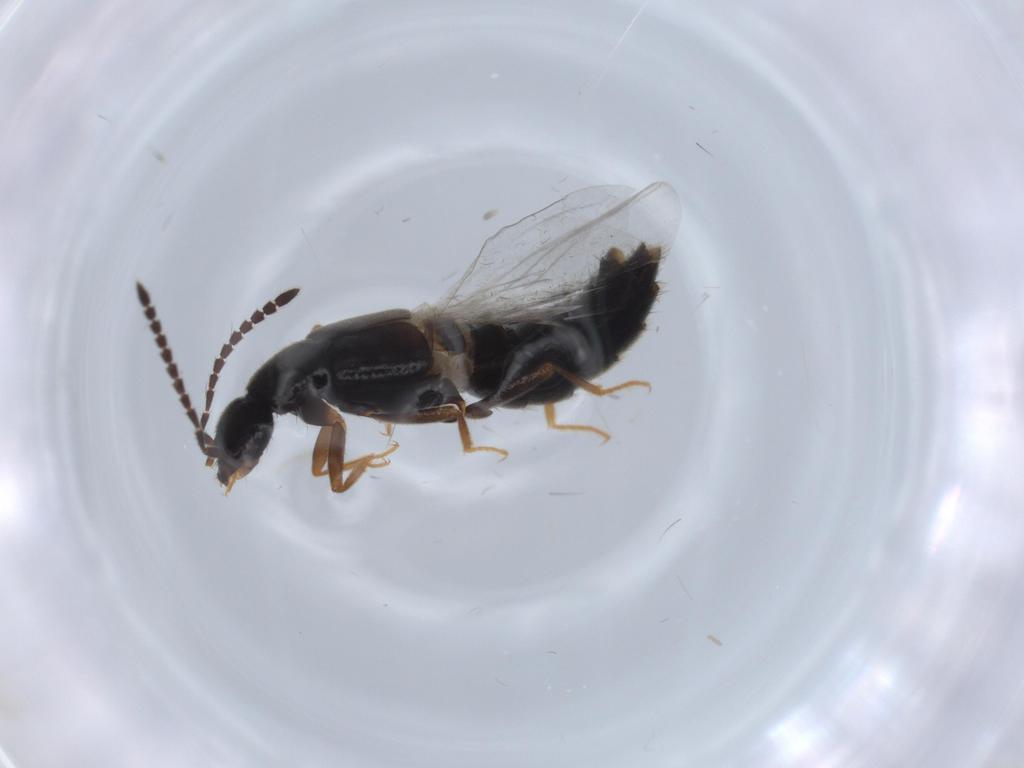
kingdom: Animalia
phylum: Arthropoda
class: Insecta
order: Coleoptera
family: Staphylinidae
